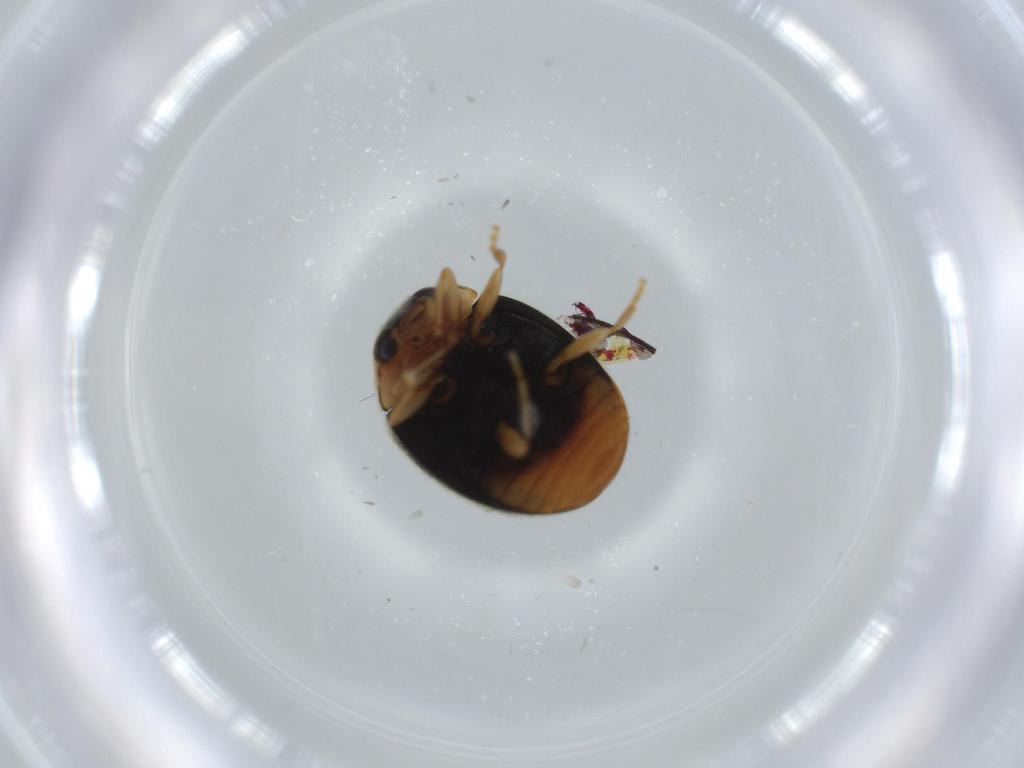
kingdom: Animalia
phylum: Arthropoda
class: Insecta
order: Coleoptera
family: Coccinellidae
